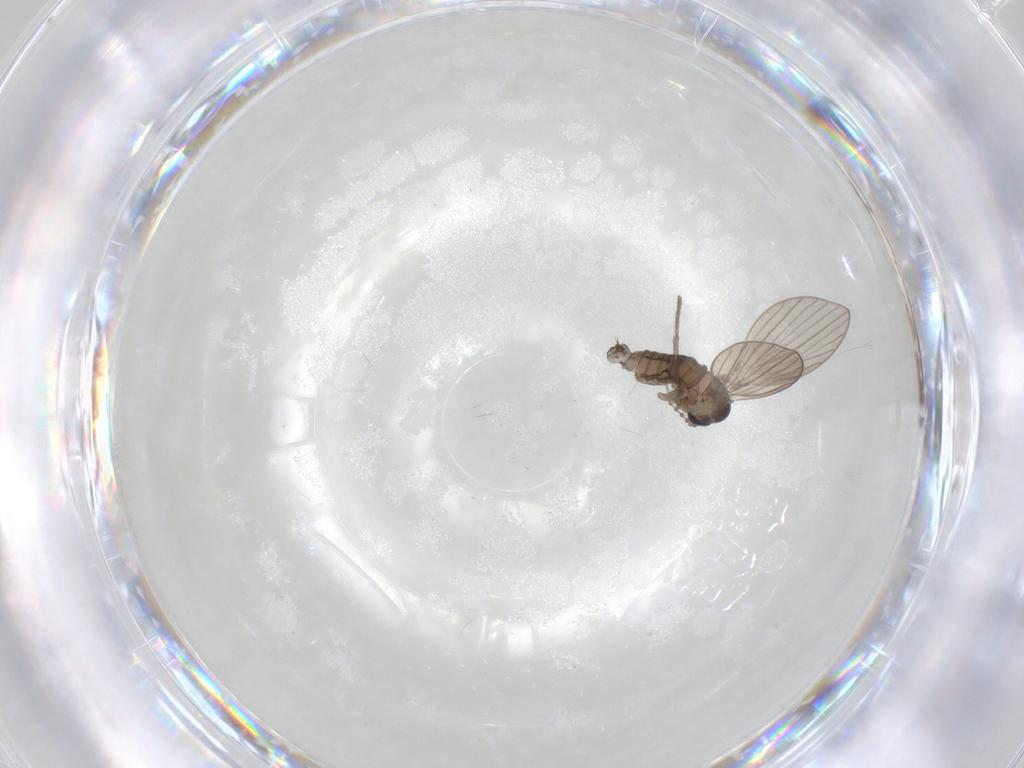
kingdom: Animalia
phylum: Arthropoda
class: Insecta
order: Diptera
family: Psychodidae
